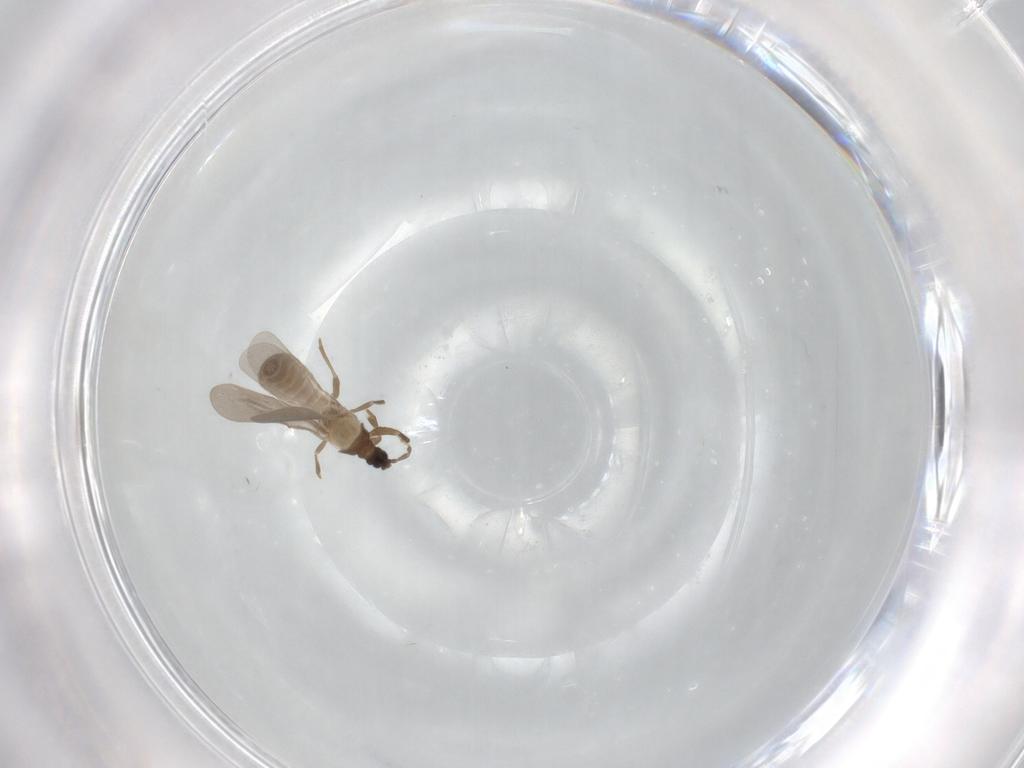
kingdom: Animalia
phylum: Arthropoda
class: Insecta
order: Hemiptera
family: Enicocephalidae
